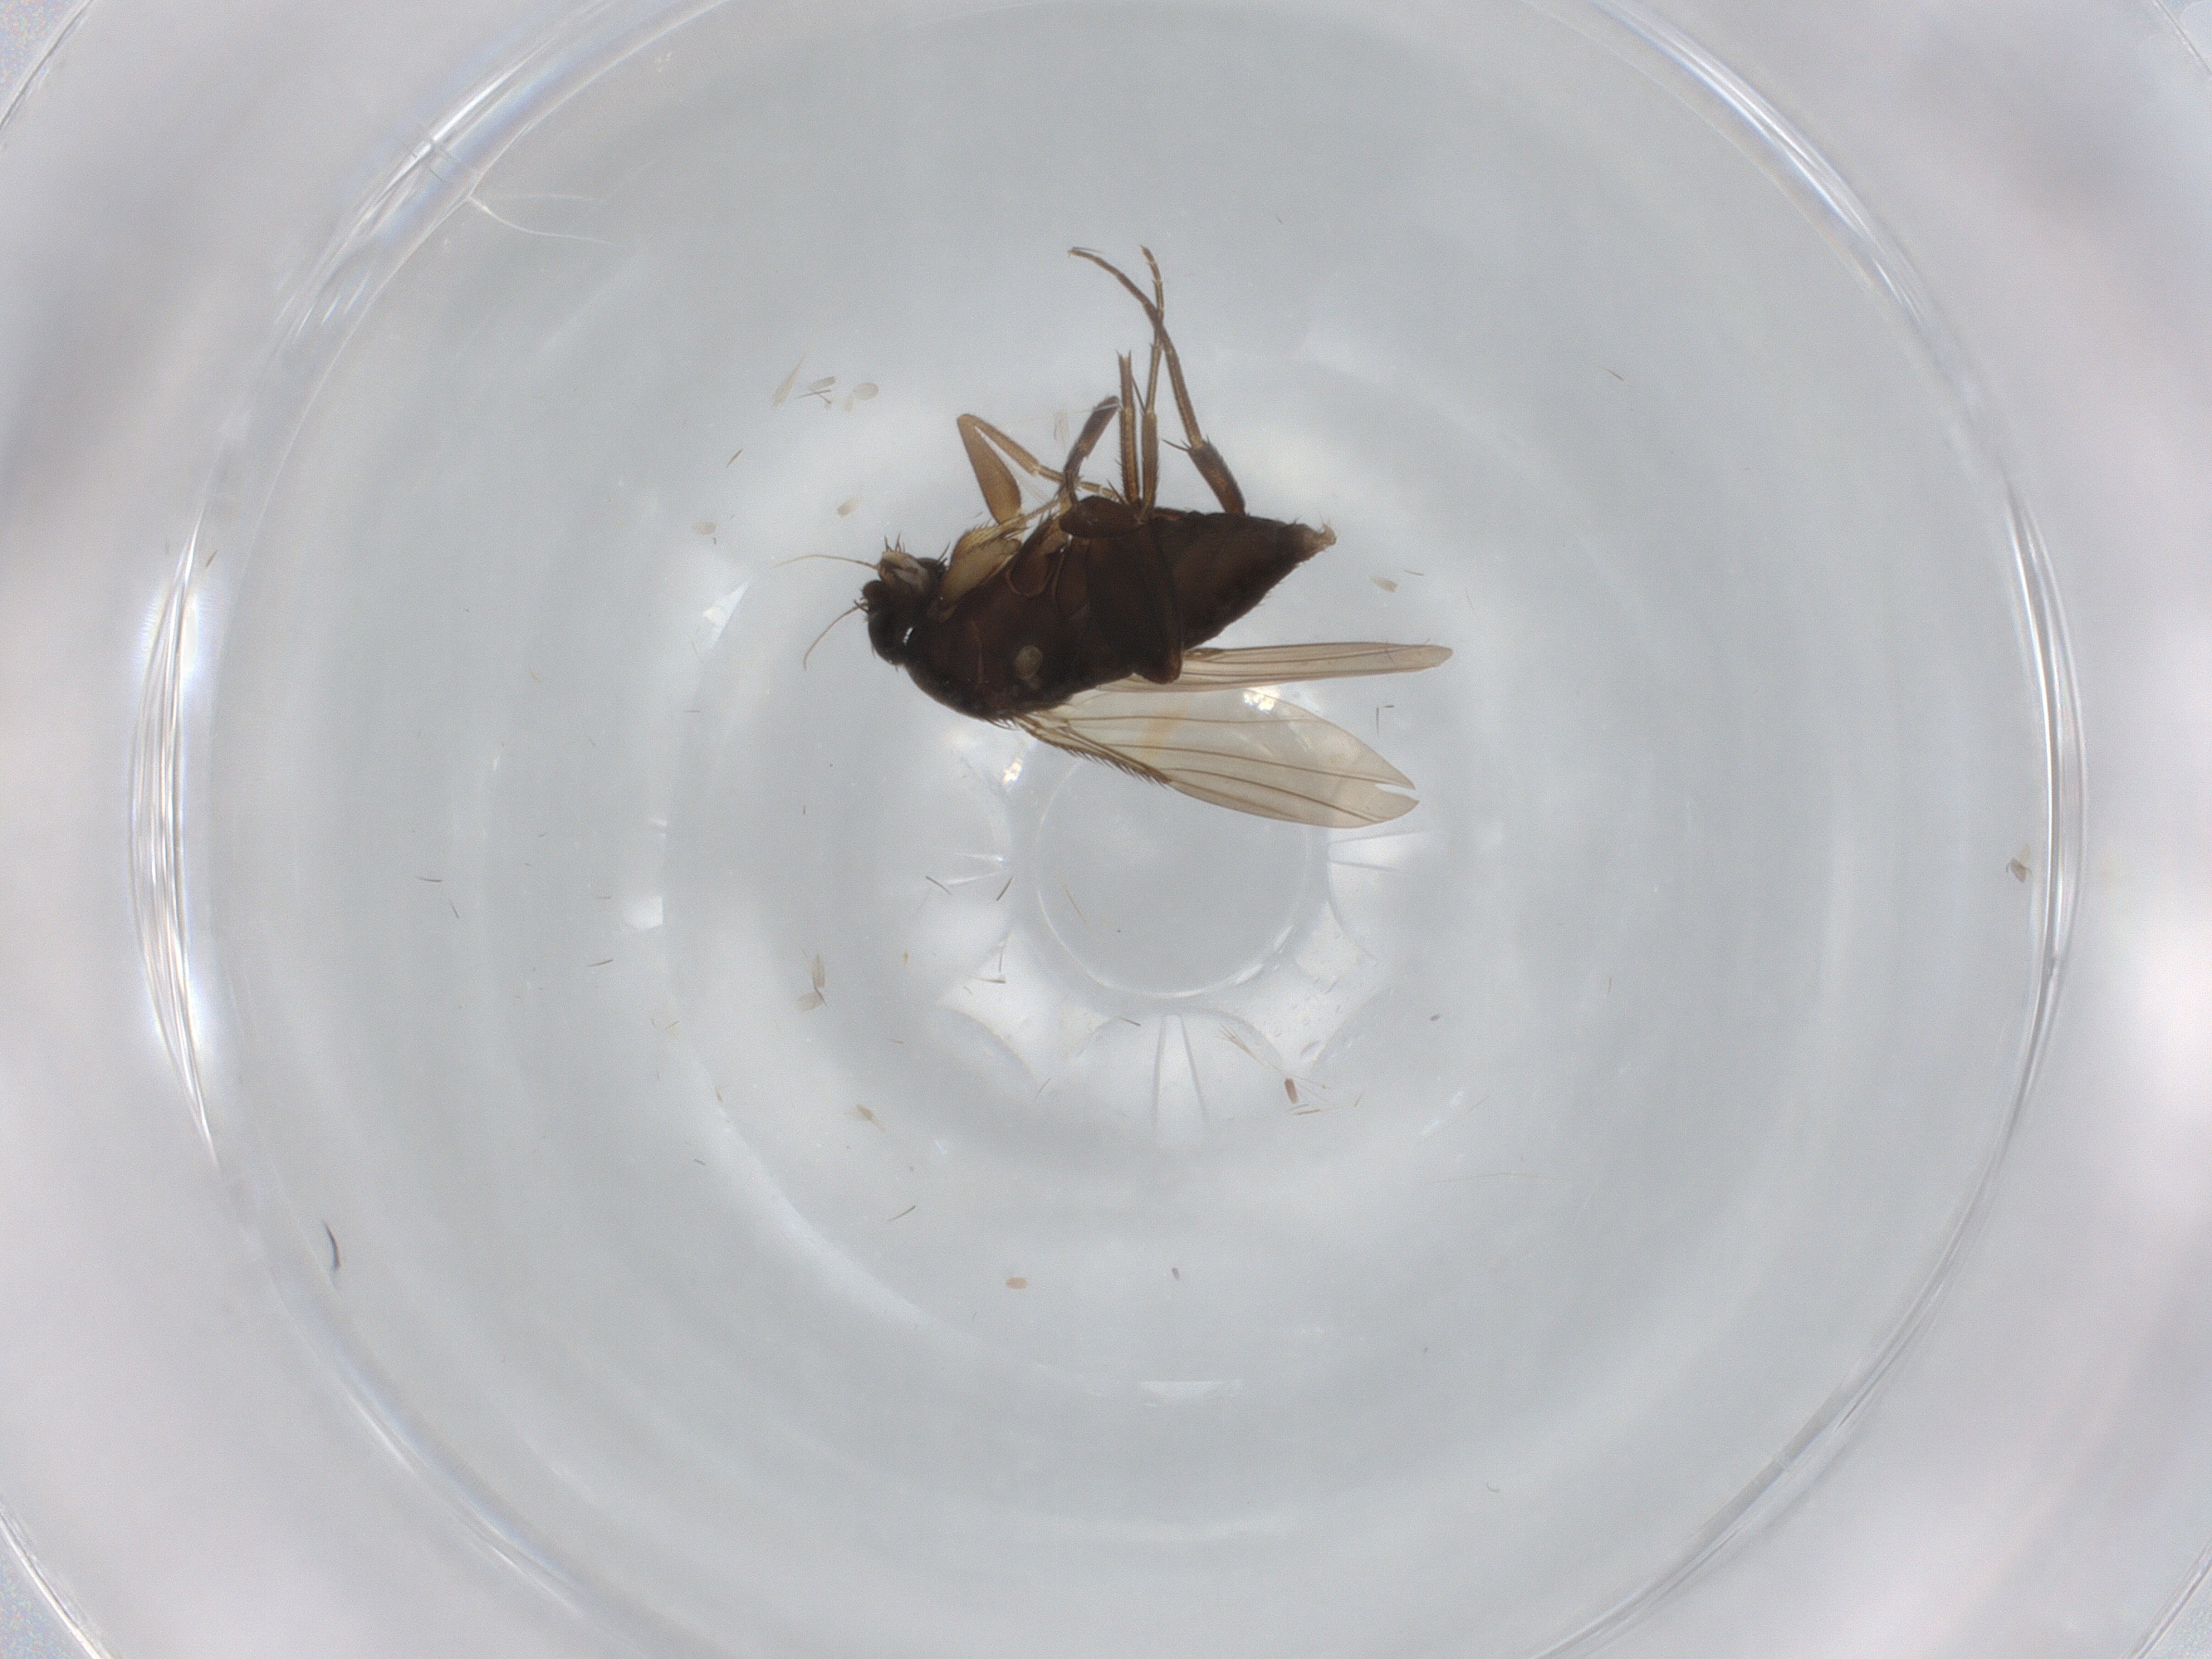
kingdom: Animalia
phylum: Arthropoda
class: Insecta
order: Diptera
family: Phoridae
